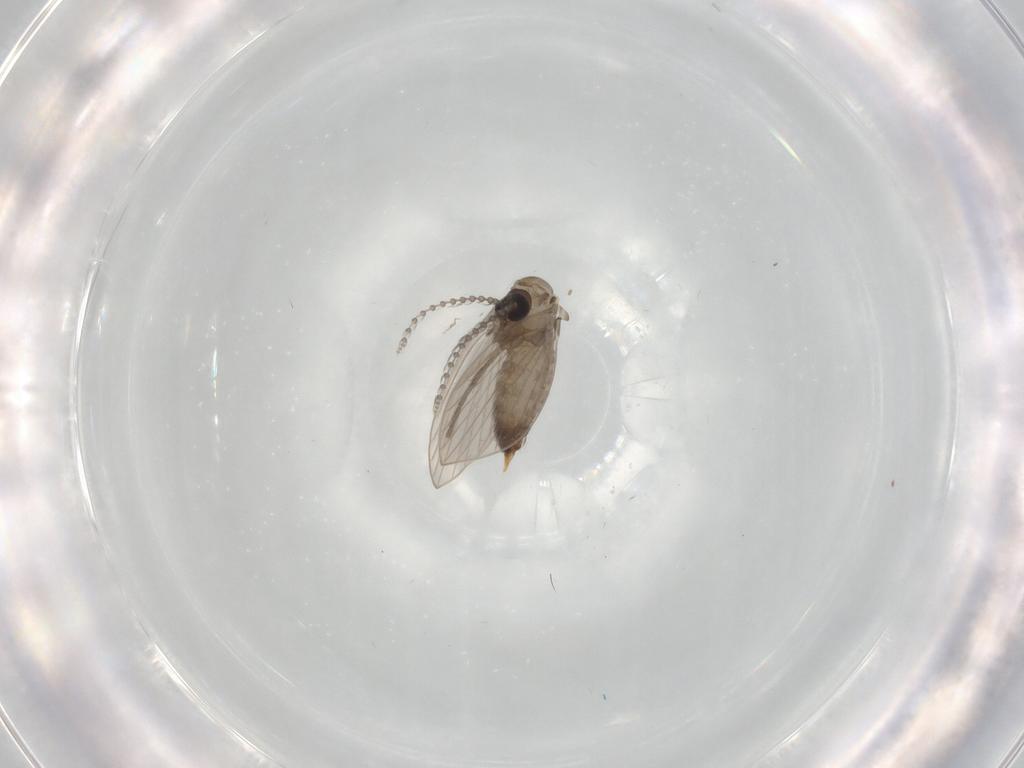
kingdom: Animalia
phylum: Arthropoda
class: Insecta
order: Diptera
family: Psychodidae
